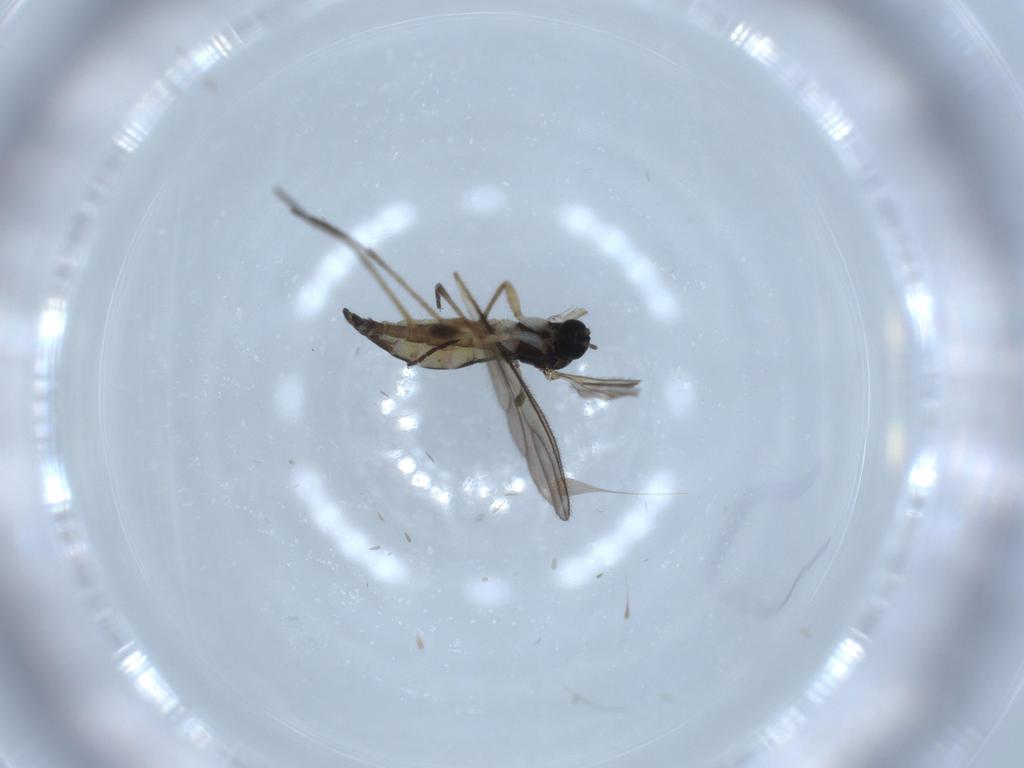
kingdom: Animalia
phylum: Arthropoda
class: Insecta
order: Diptera
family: Sciaridae
